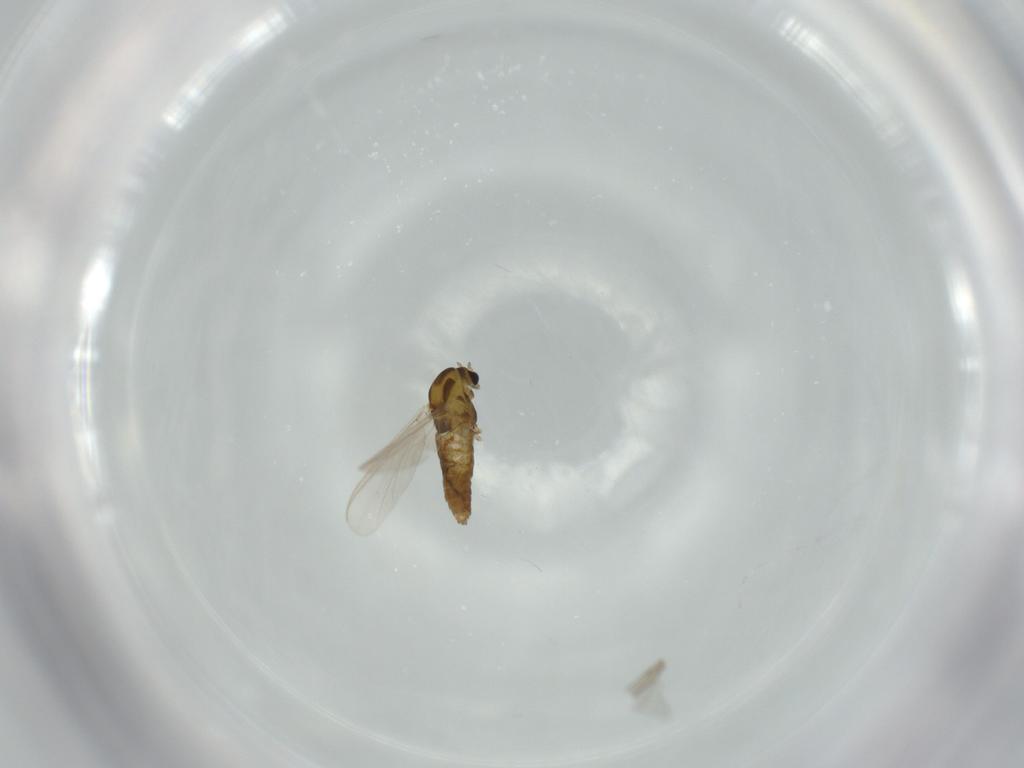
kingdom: Animalia
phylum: Arthropoda
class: Insecta
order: Diptera
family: Chironomidae
